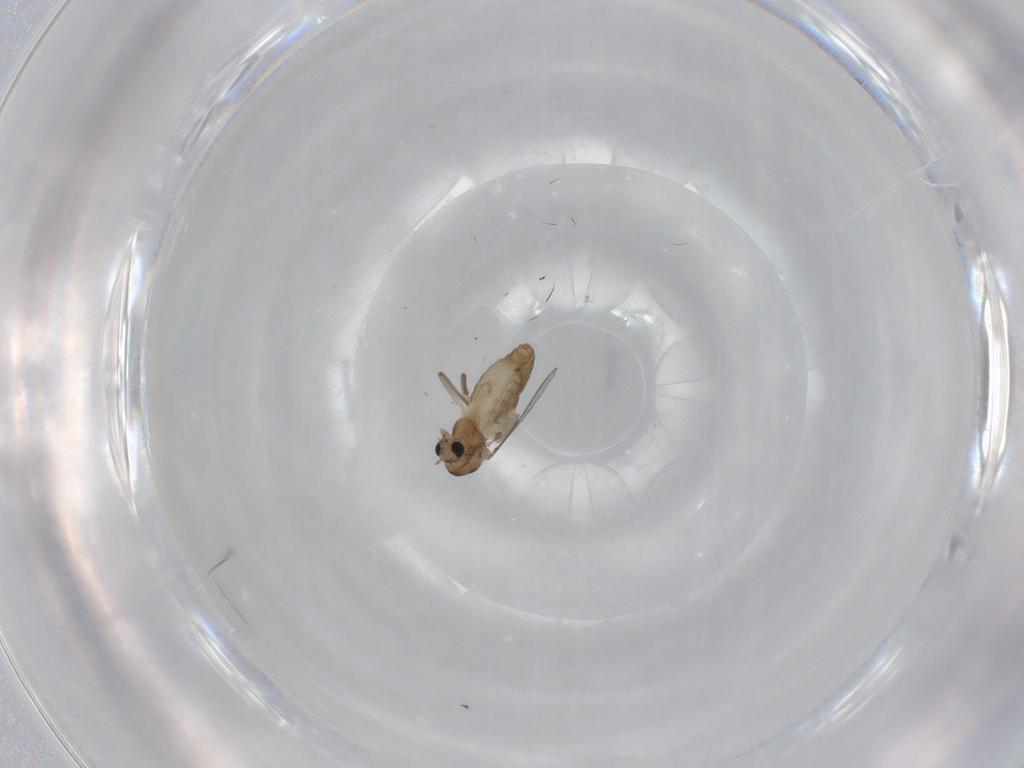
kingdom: Animalia
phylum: Arthropoda
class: Insecta
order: Diptera
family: Chironomidae
